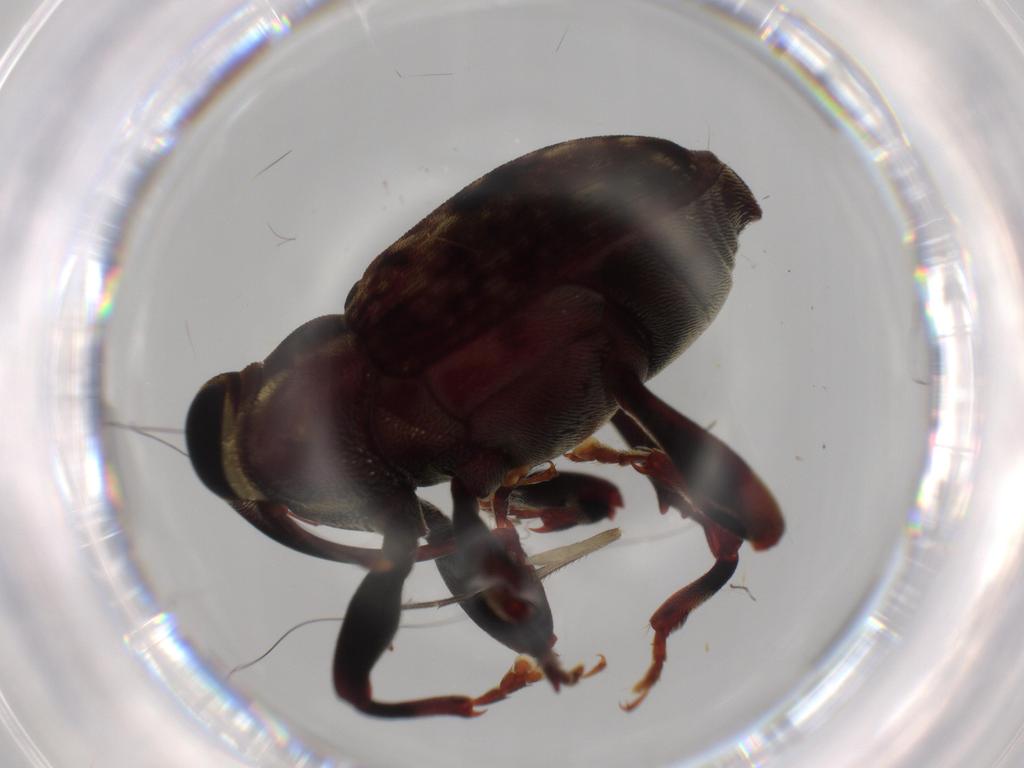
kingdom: Animalia
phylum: Arthropoda
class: Insecta
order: Coleoptera
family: Curculionidae
